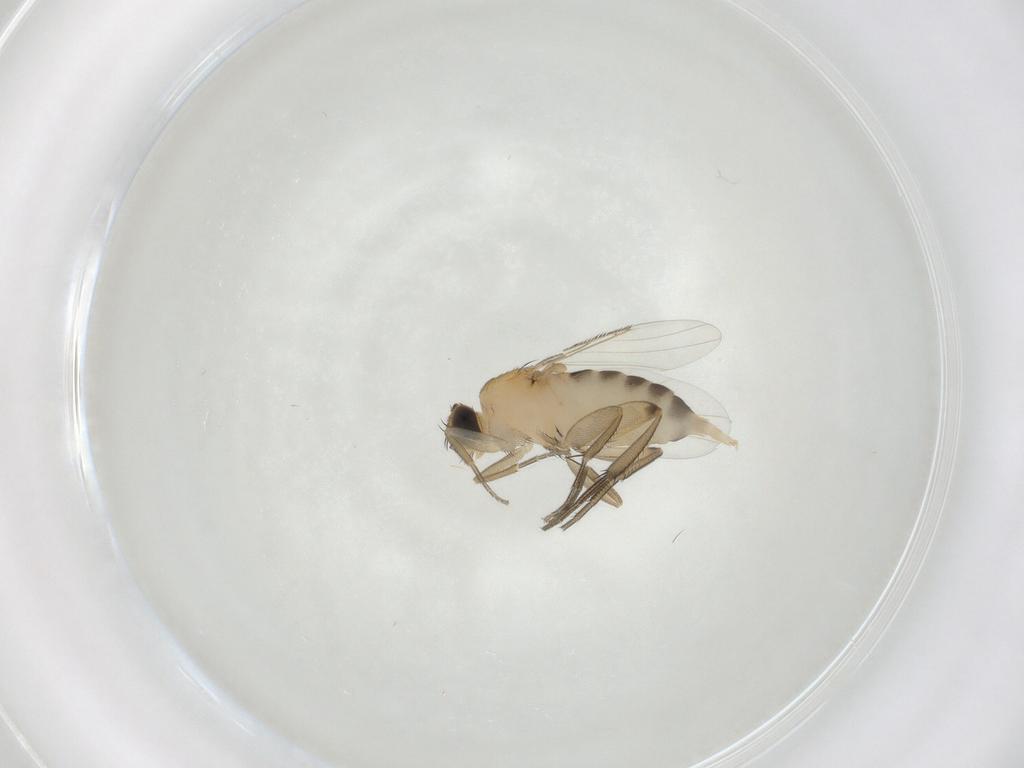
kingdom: Animalia
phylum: Arthropoda
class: Insecta
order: Diptera
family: Phoridae
